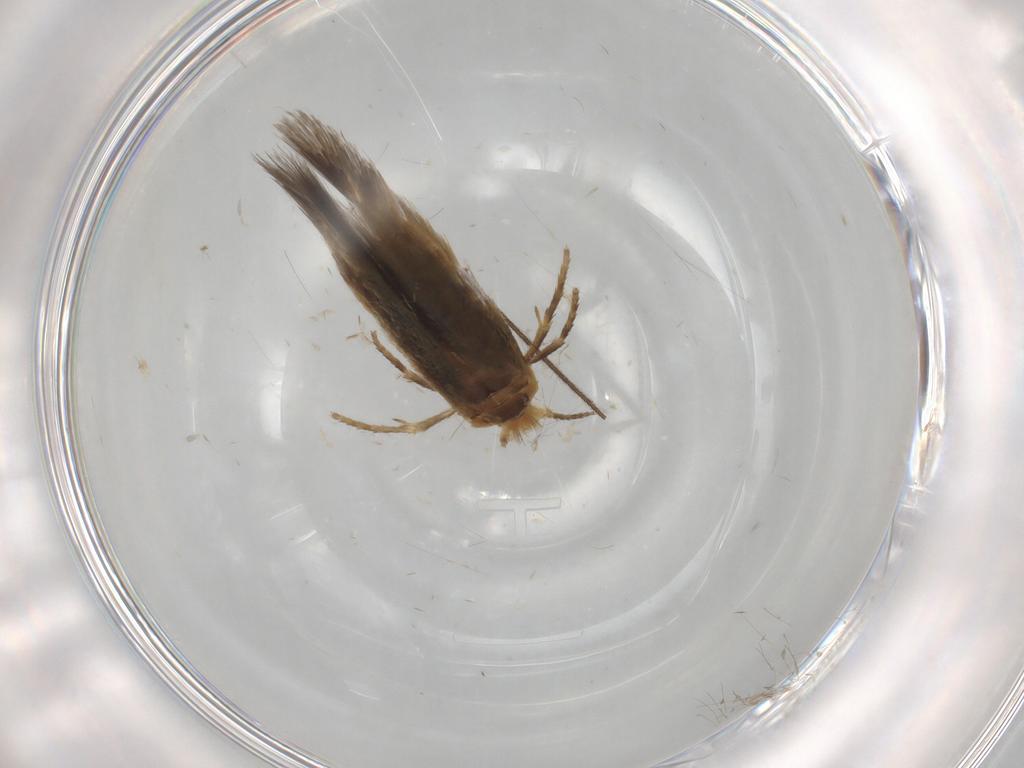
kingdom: Animalia
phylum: Arthropoda
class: Insecta
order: Lepidoptera
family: Nepticulidae
